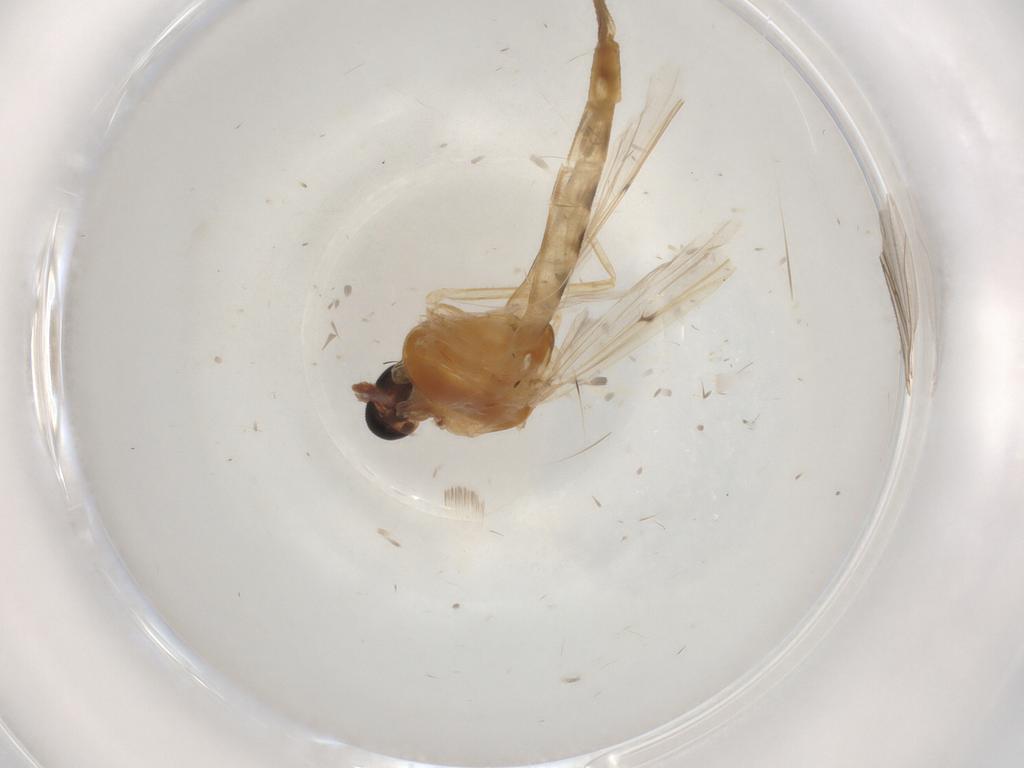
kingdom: Animalia
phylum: Arthropoda
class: Insecta
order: Diptera
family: Chironomidae
